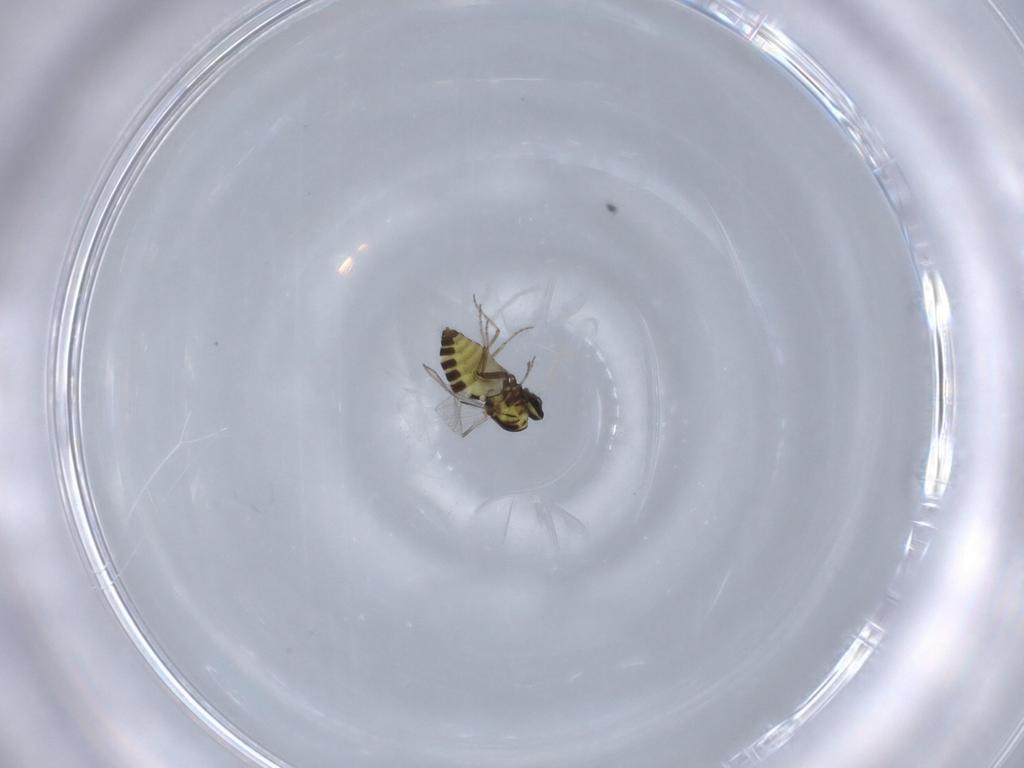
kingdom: Animalia
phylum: Arthropoda
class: Insecta
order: Diptera
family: Ceratopogonidae
